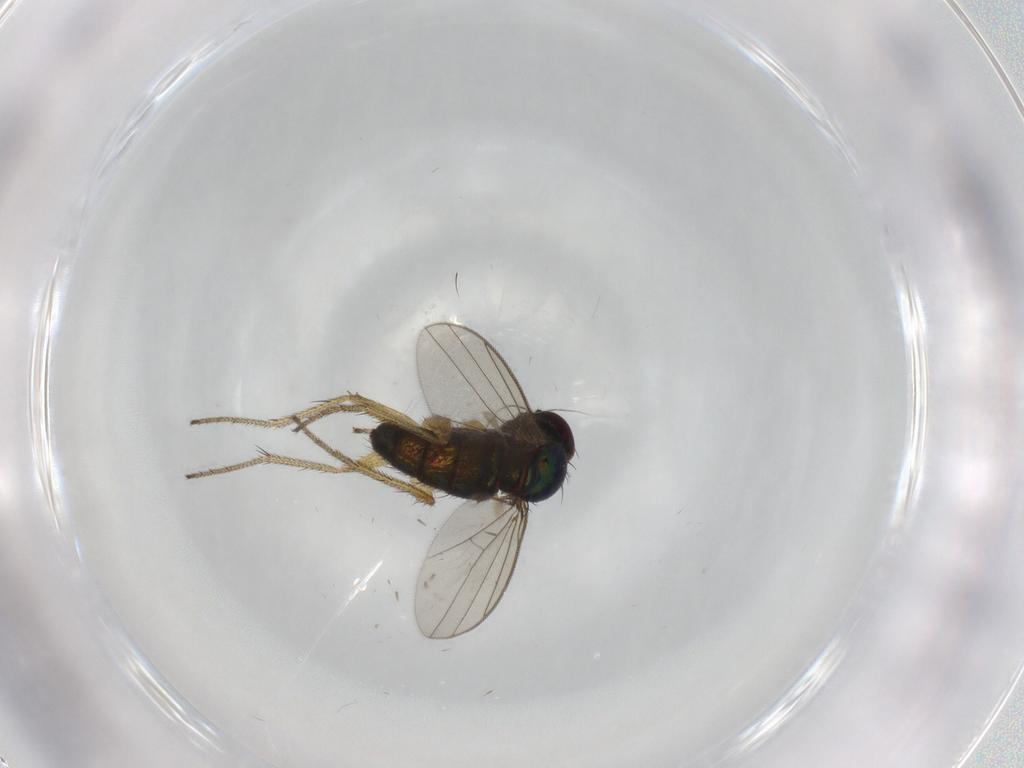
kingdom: Animalia
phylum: Arthropoda
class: Insecta
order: Diptera
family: Chironomidae
